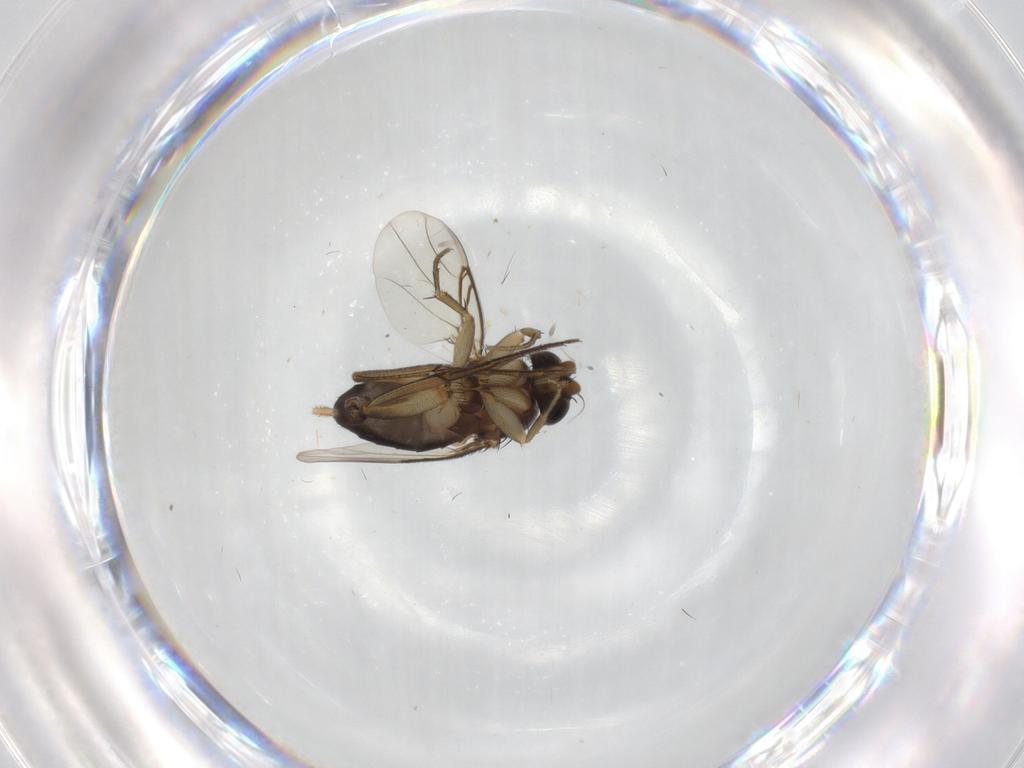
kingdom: Animalia
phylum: Arthropoda
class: Insecta
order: Diptera
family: Phoridae
